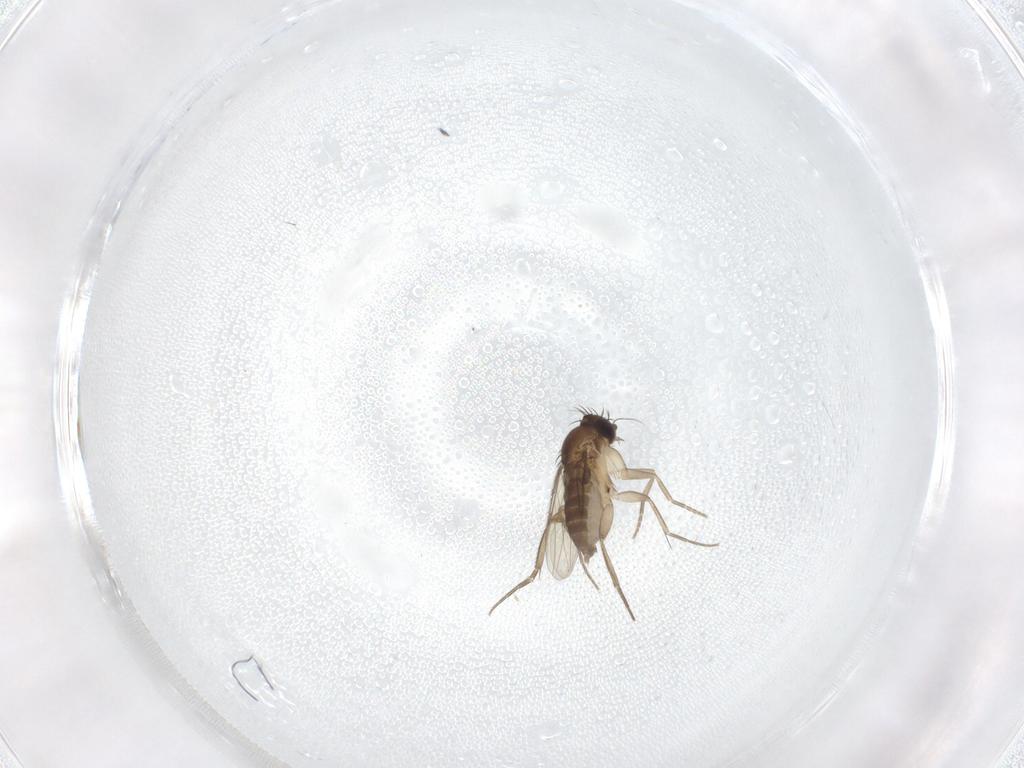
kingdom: Animalia
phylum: Arthropoda
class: Insecta
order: Diptera
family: Phoridae
